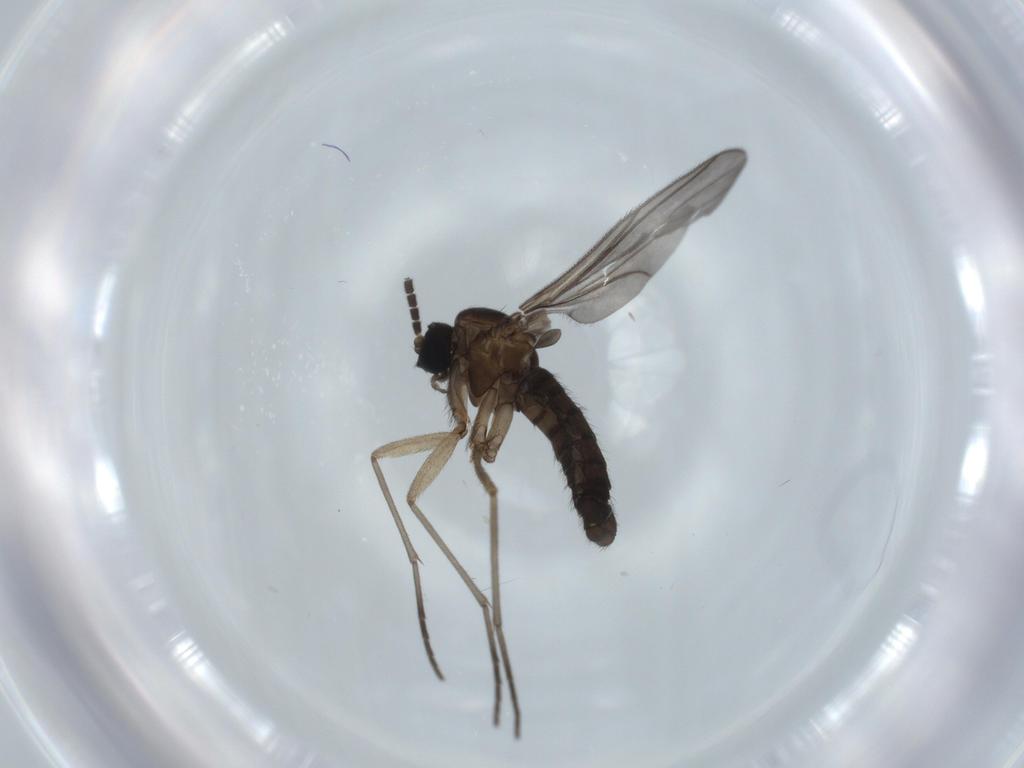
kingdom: Animalia
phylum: Arthropoda
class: Insecta
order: Diptera
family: Sciaridae
